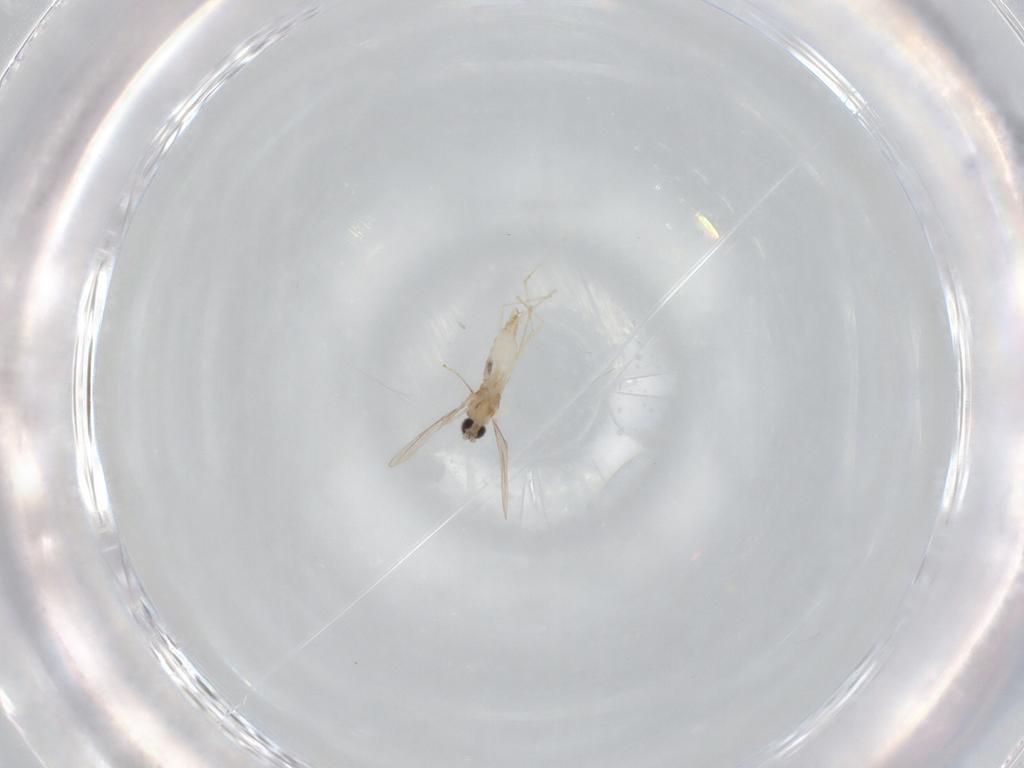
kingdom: Animalia
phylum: Arthropoda
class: Insecta
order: Diptera
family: Cecidomyiidae
